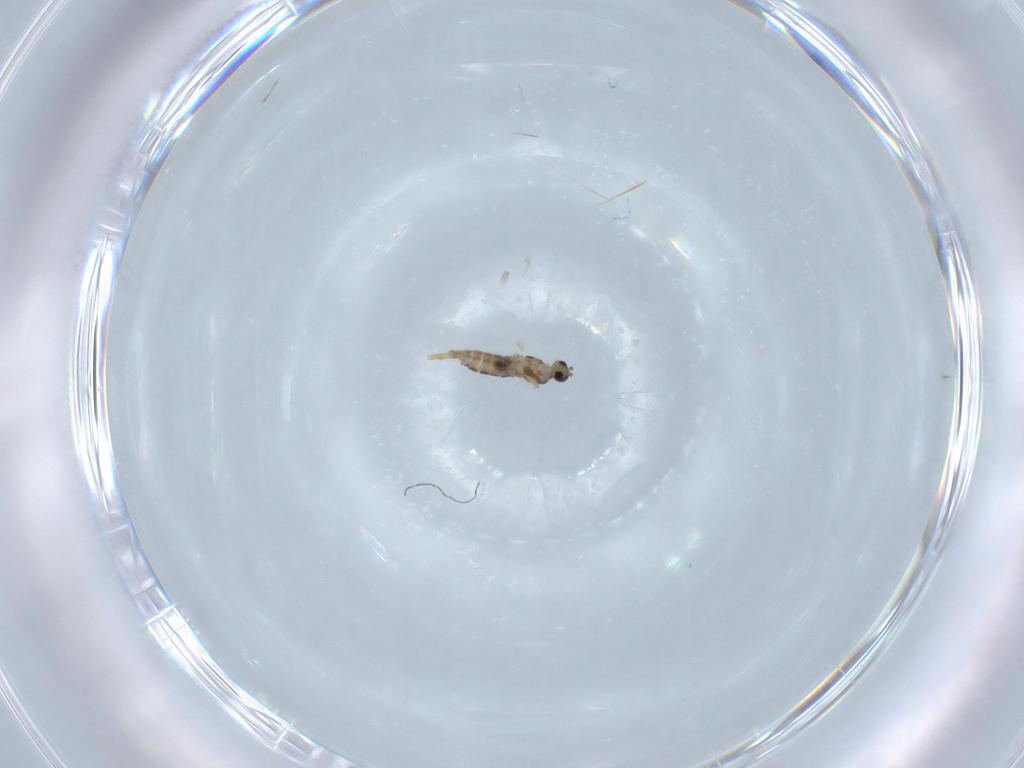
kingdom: Animalia
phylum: Arthropoda
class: Insecta
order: Diptera
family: Cecidomyiidae
